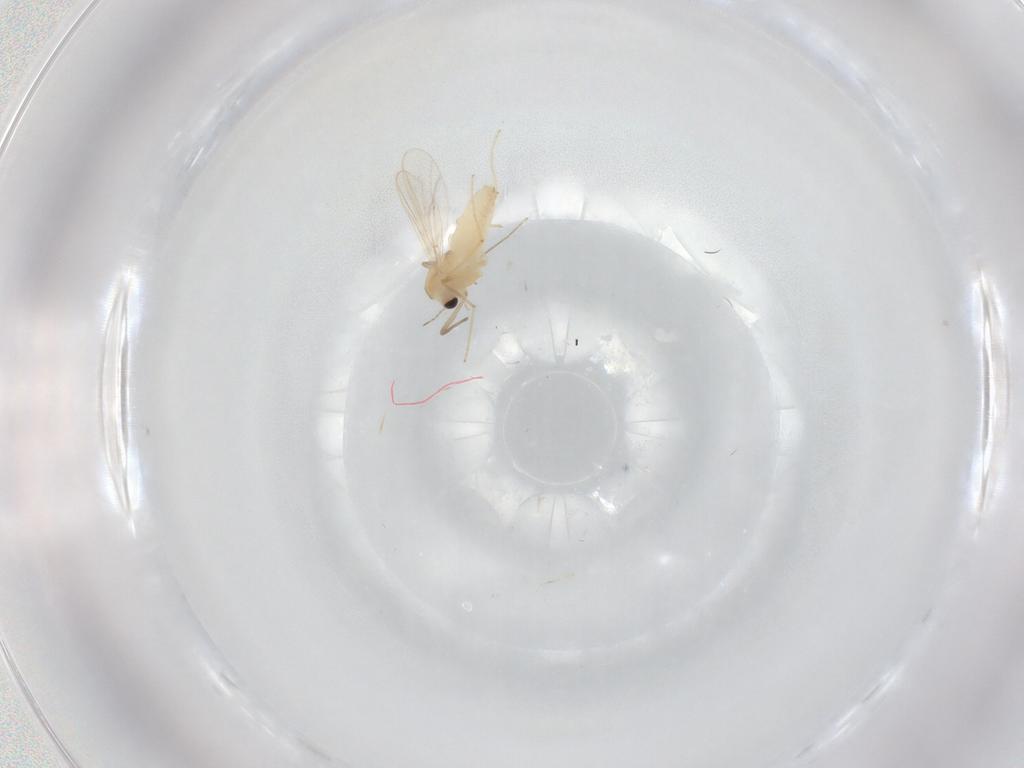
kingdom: Animalia
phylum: Arthropoda
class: Insecta
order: Diptera
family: Chironomidae
